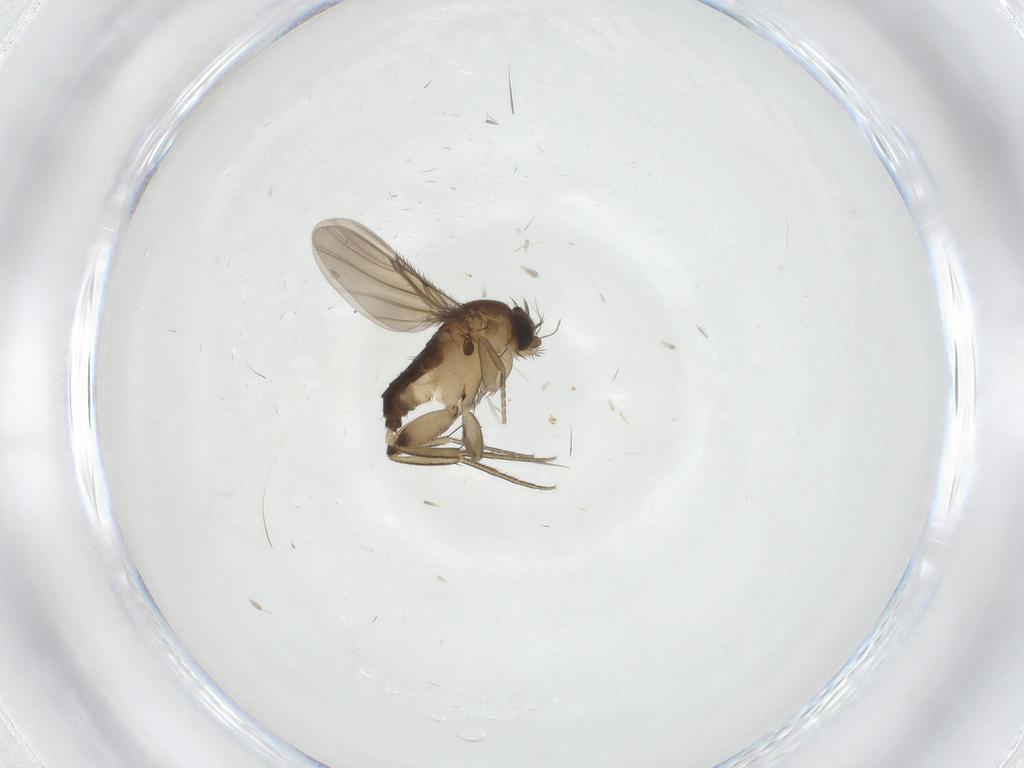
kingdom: Animalia
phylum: Arthropoda
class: Insecta
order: Diptera
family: Phoridae
